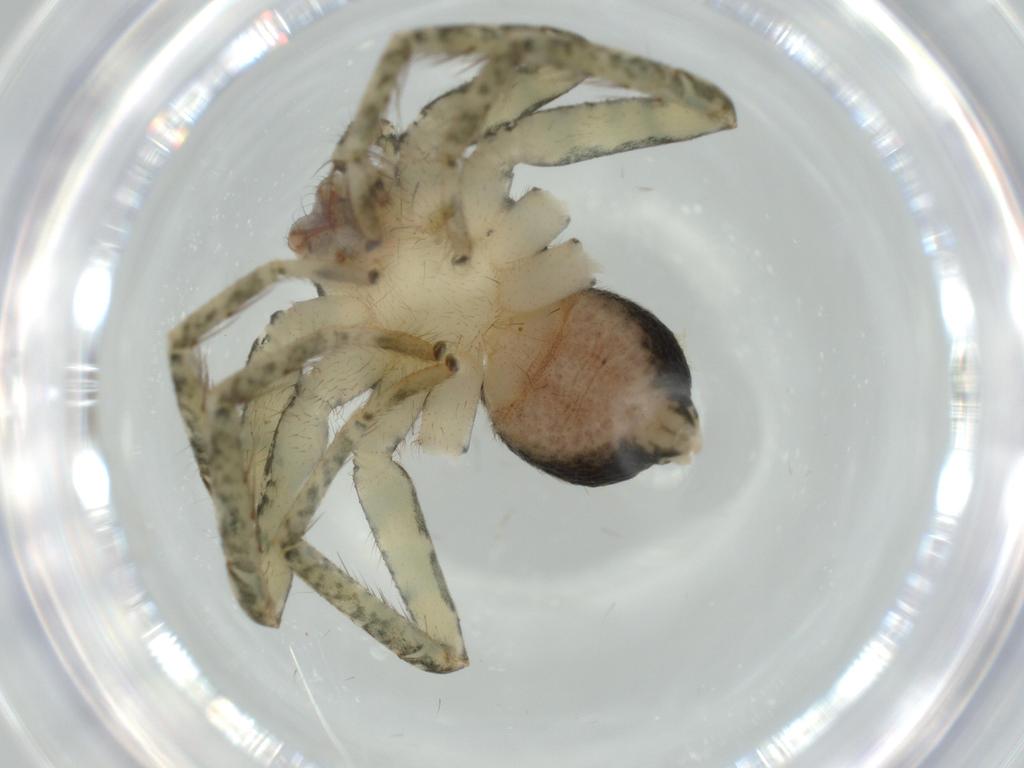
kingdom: Animalia
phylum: Arthropoda
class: Arachnida
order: Araneae
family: Selenopidae
